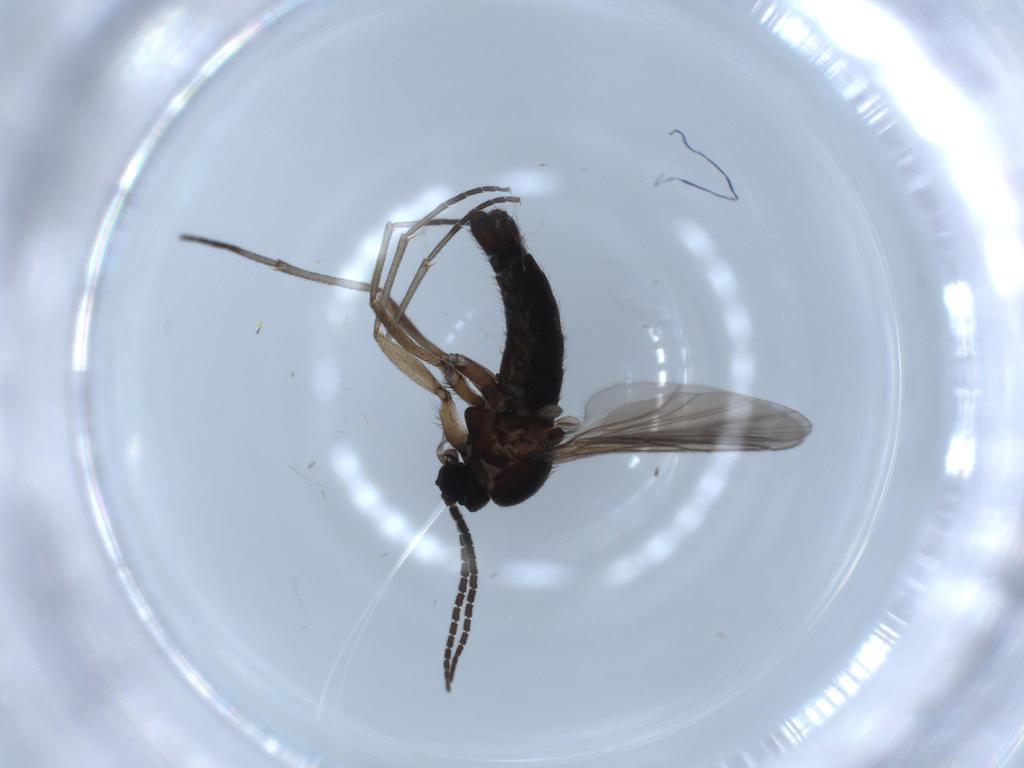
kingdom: Animalia
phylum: Arthropoda
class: Insecta
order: Diptera
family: Sciaridae
